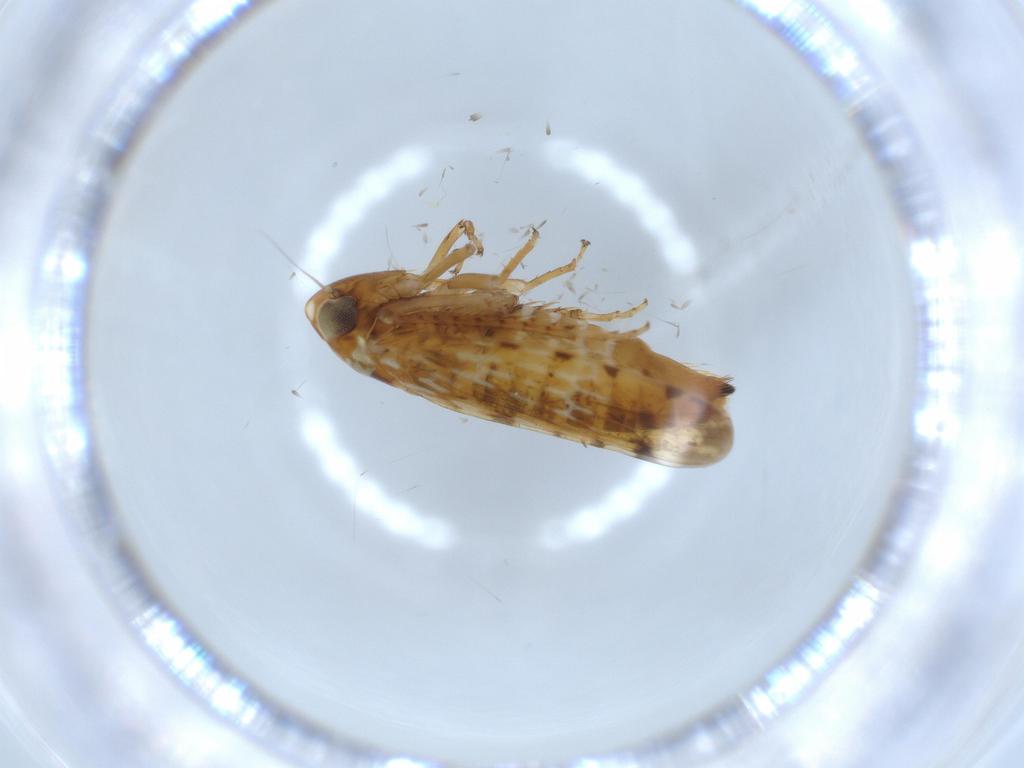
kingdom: Animalia
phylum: Arthropoda
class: Insecta
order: Hemiptera
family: Cicadellidae
